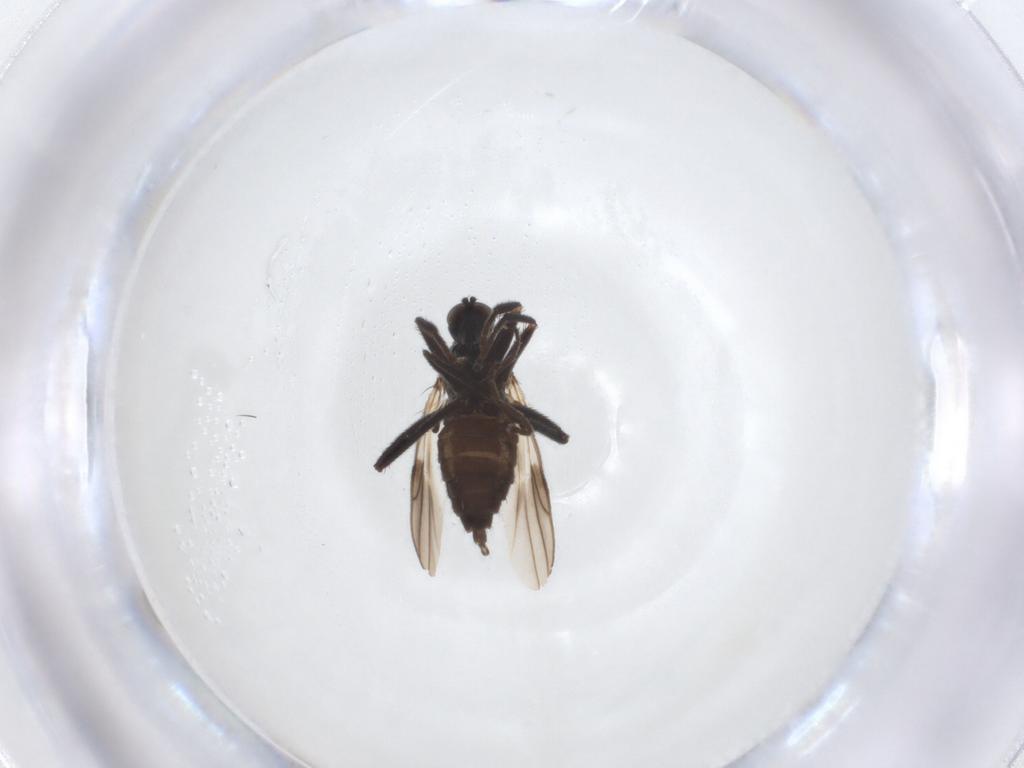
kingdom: Animalia
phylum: Arthropoda
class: Insecta
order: Diptera
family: Hybotidae
